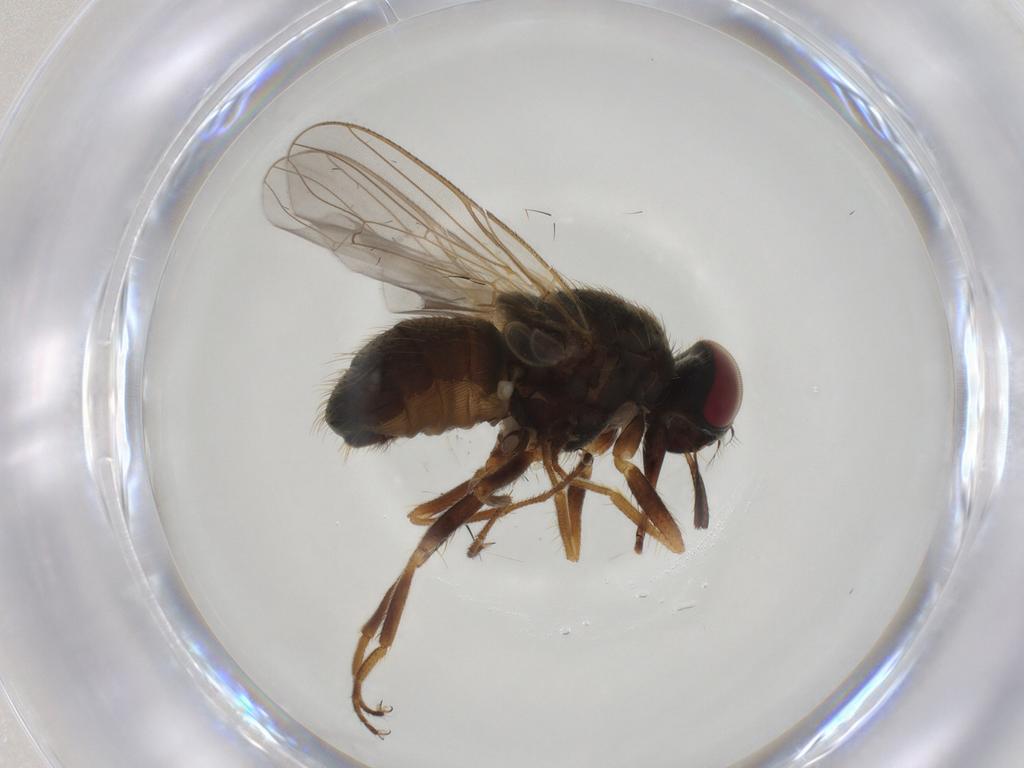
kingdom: Animalia
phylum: Arthropoda
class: Insecta
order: Diptera
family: Muscidae
